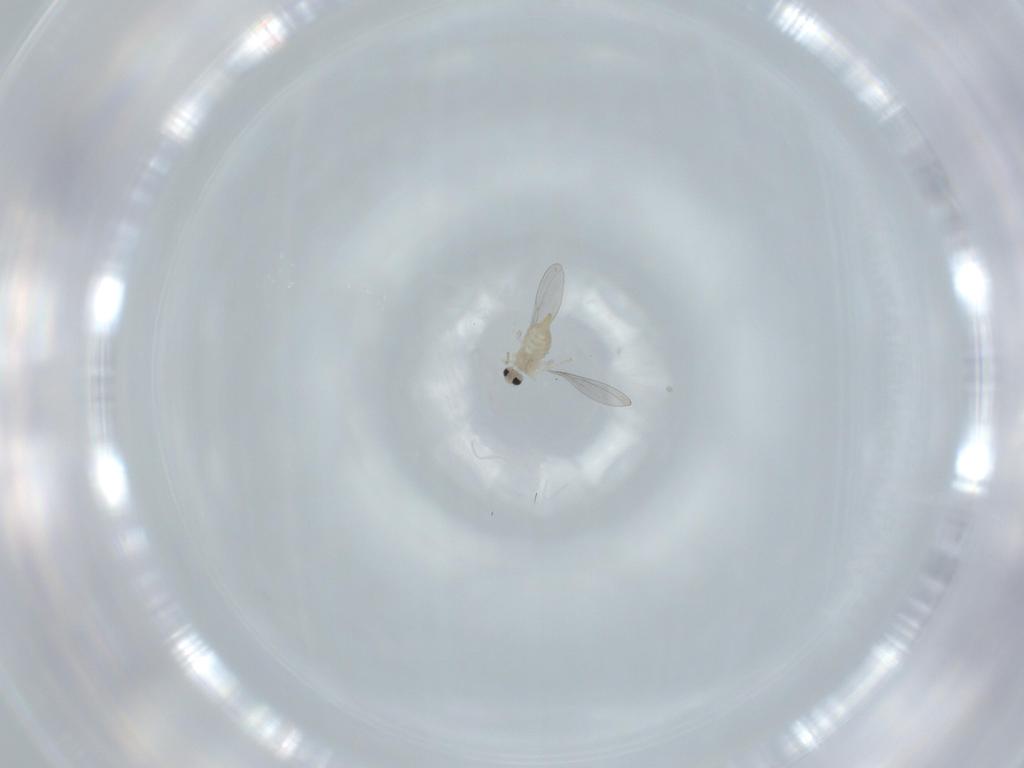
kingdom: Animalia
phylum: Arthropoda
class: Insecta
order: Diptera
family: Cecidomyiidae
